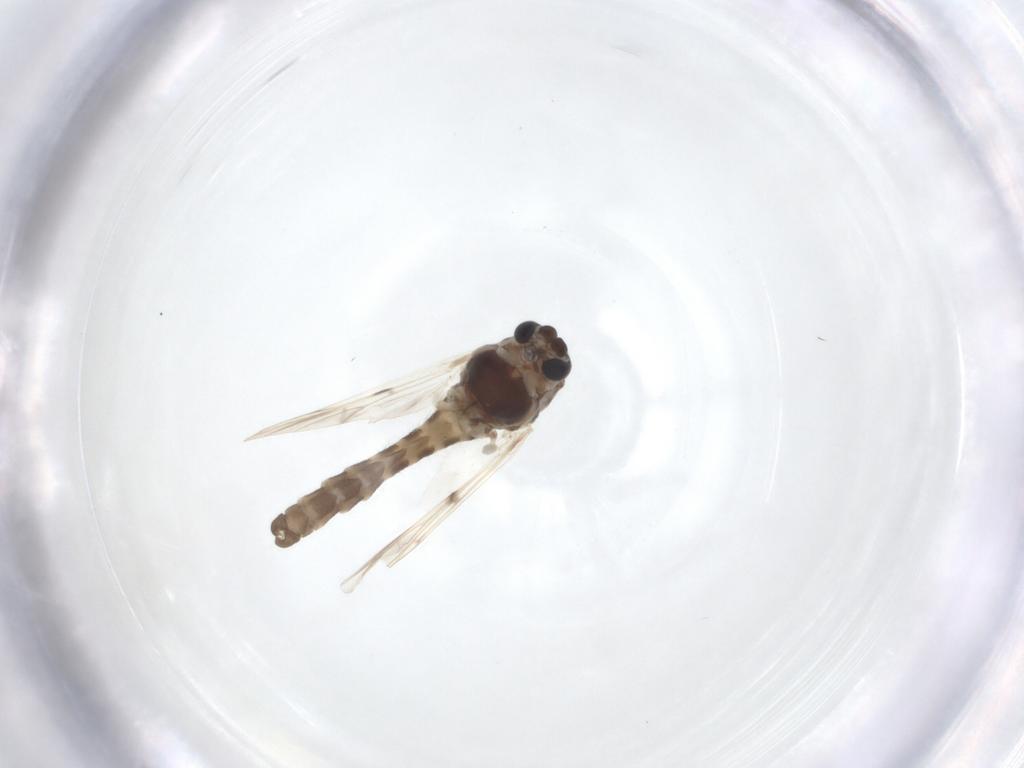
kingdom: Animalia
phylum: Arthropoda
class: Insecta
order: Diptera
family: Chironomidae
